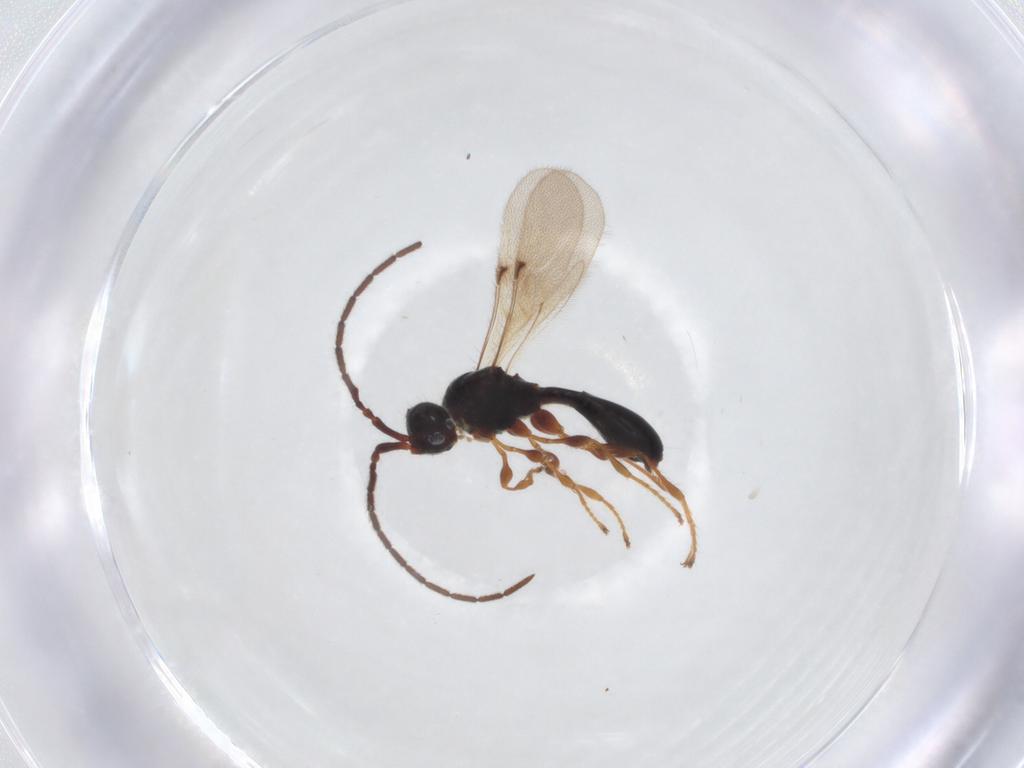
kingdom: Animalia
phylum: Arthropoda
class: Insecta
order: Hymenoptera
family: Diapriidae
